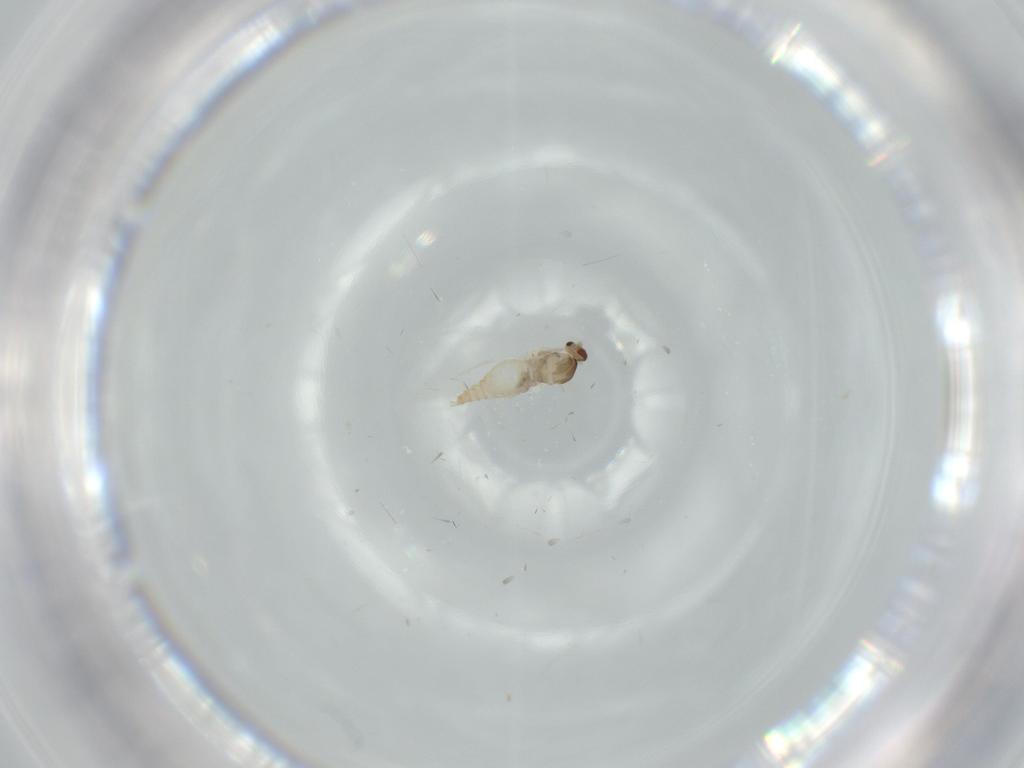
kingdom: Animalia
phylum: Arthropoda
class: Insecta
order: Diptera
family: Cecidomyiidae
